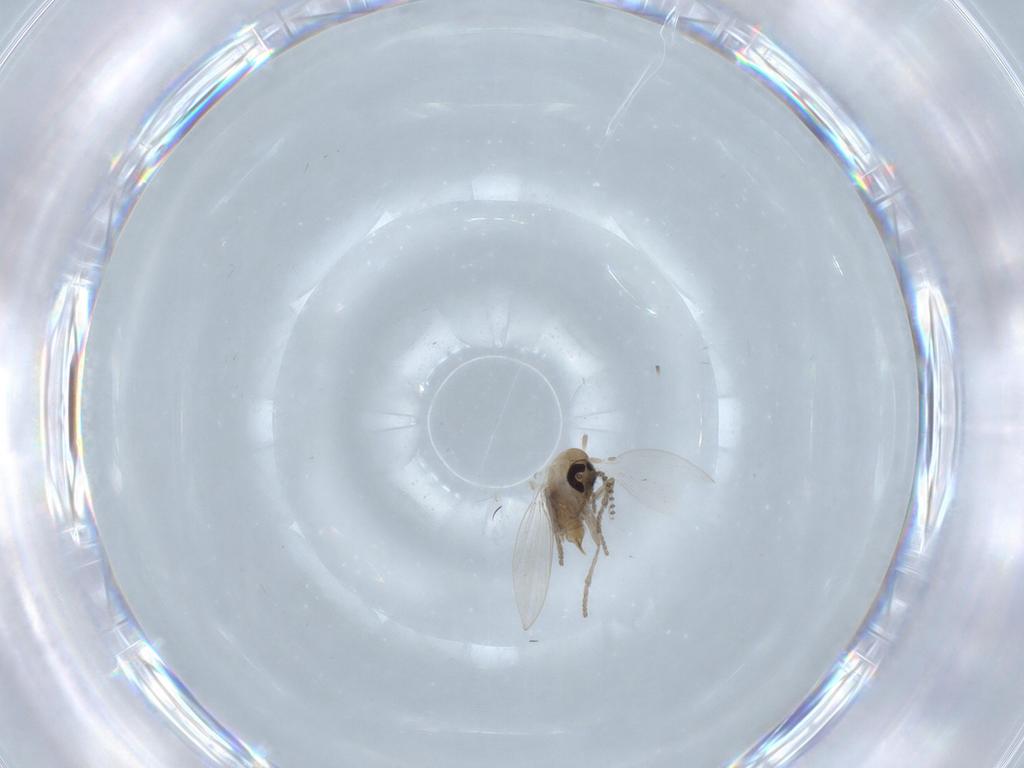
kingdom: Animalia
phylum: Arthropoda
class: Insecta
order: Diptera
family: Psychodidae
